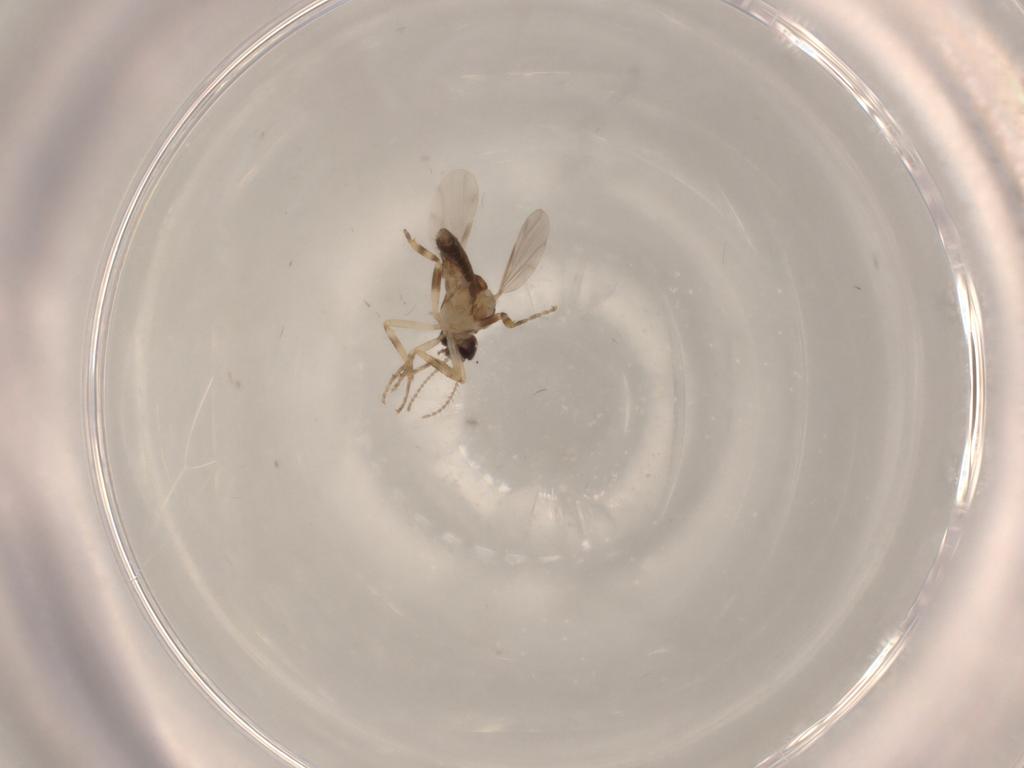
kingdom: Animalia
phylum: Arthropoda
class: Insecta
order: Diptera
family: Ceratopogonidae
